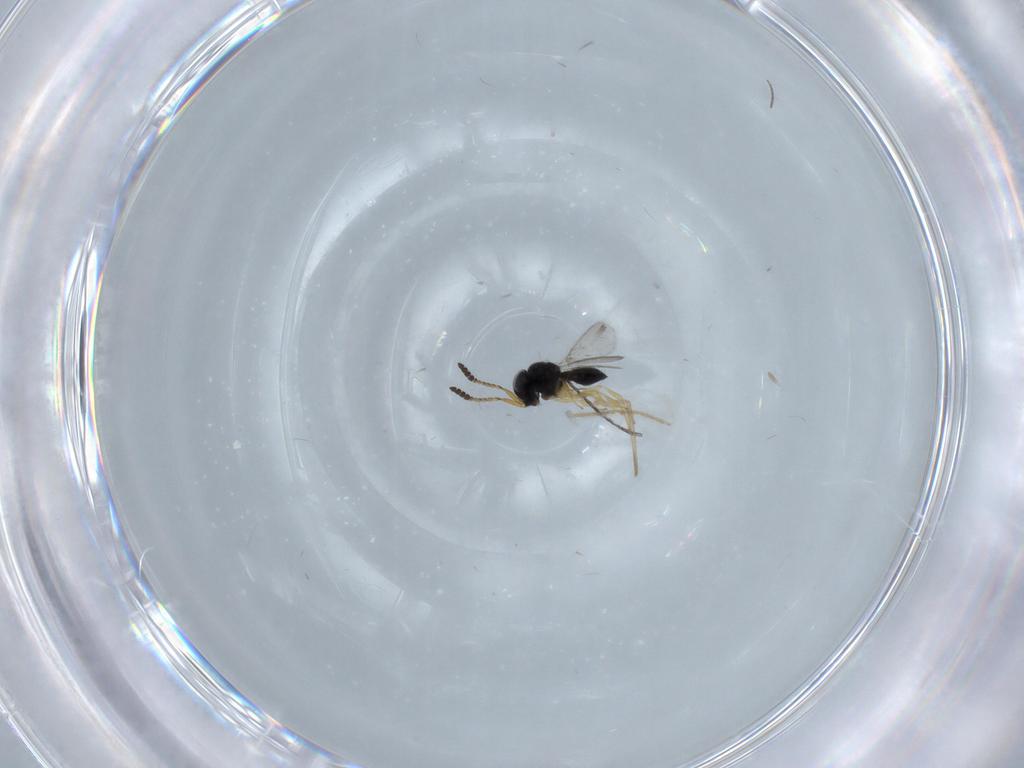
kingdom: Animalia
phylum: Arthropoda
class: Insecta
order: Hymenoptera
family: Scelionidae
